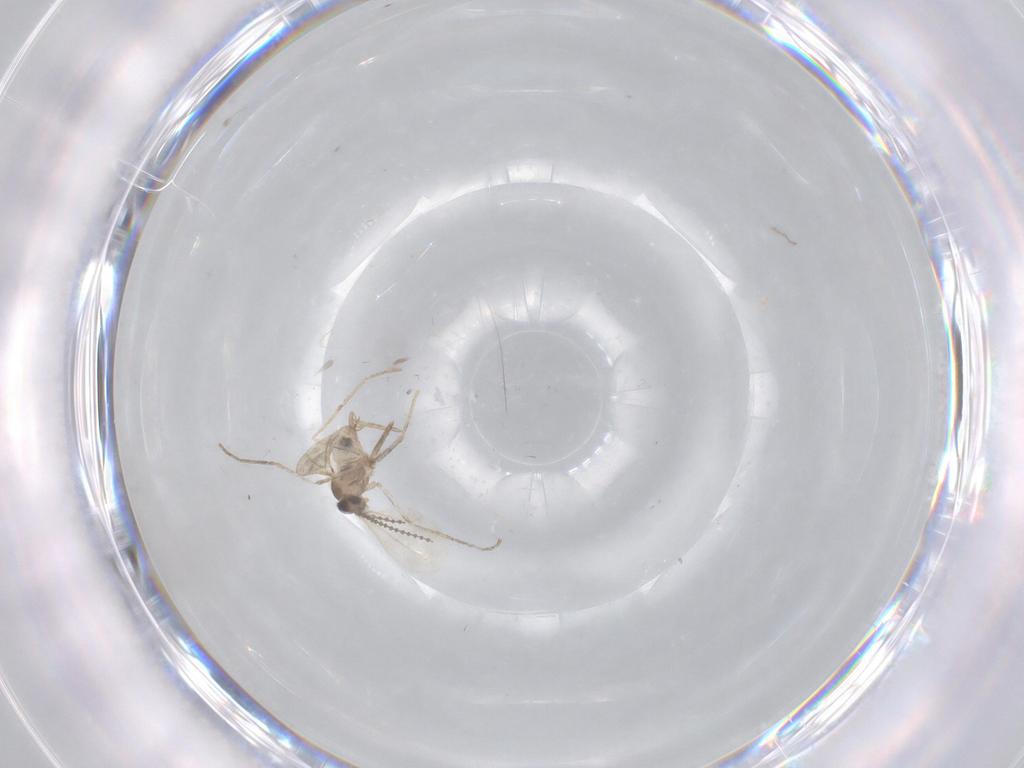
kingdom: Animalia
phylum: Arthropoda
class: Insecta
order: Diptera
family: Cecidomyiidae
